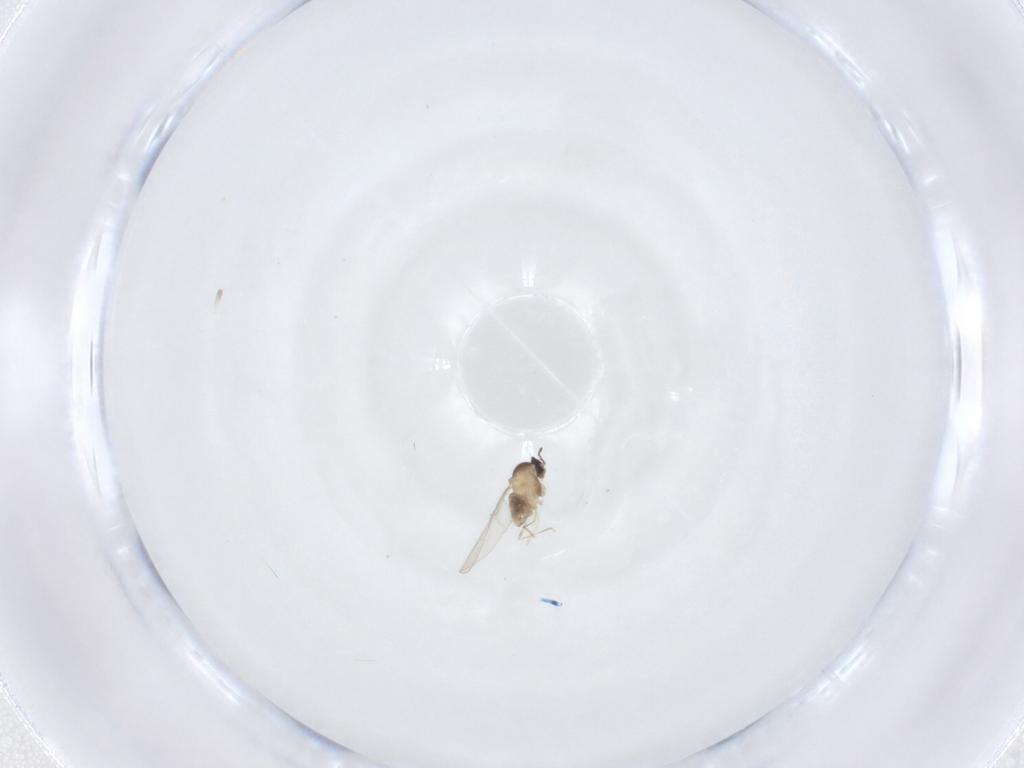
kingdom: Animalia
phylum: Arthropoda
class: Insecta
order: Diptera
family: Cecidomyiidae
